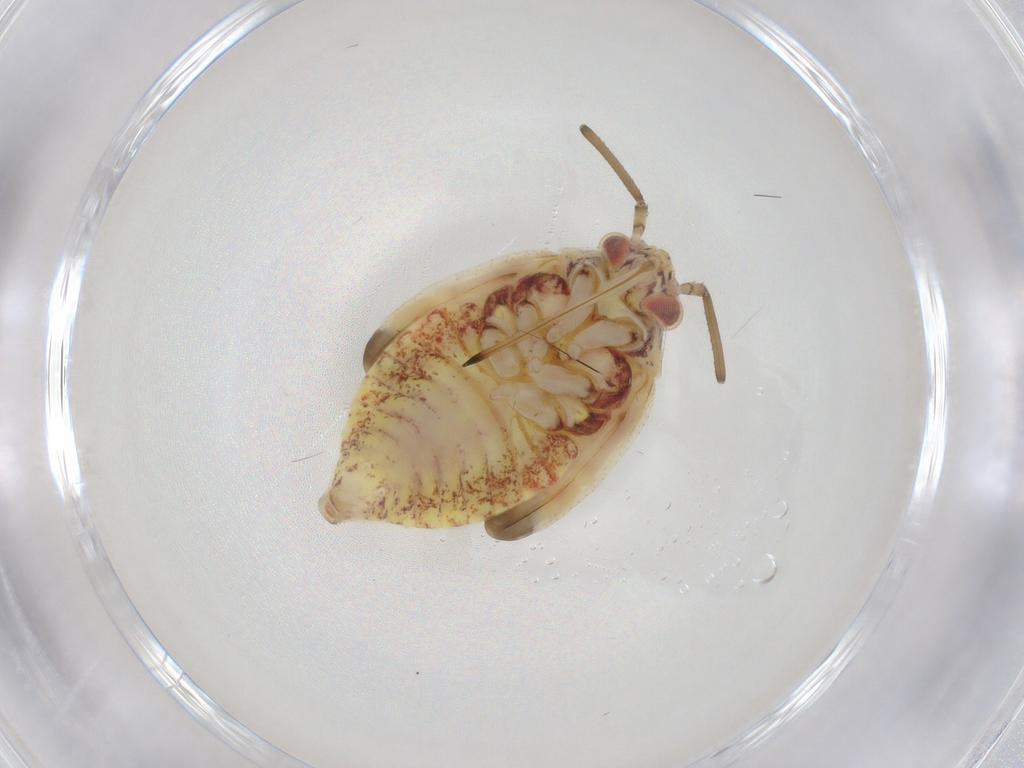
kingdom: Animalia
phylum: Arthropoda
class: Insecta
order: Hemiptera
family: Miridae
